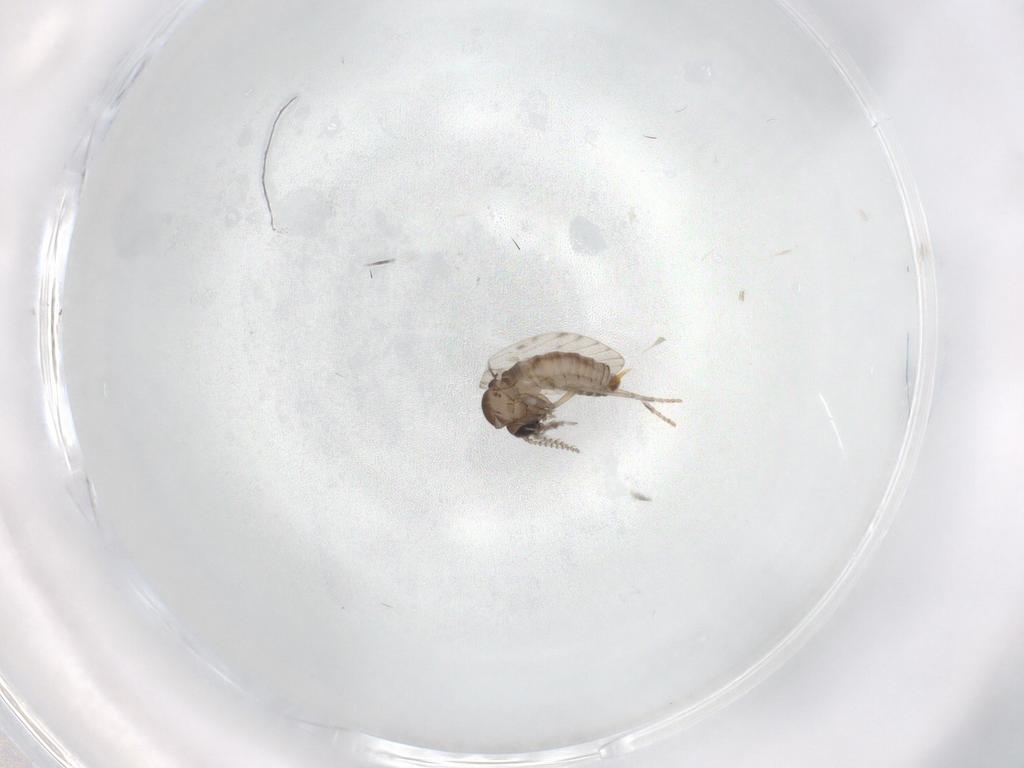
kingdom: Animalia
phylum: Arthropoda
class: Insecta
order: Diptera
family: Psychodidae
